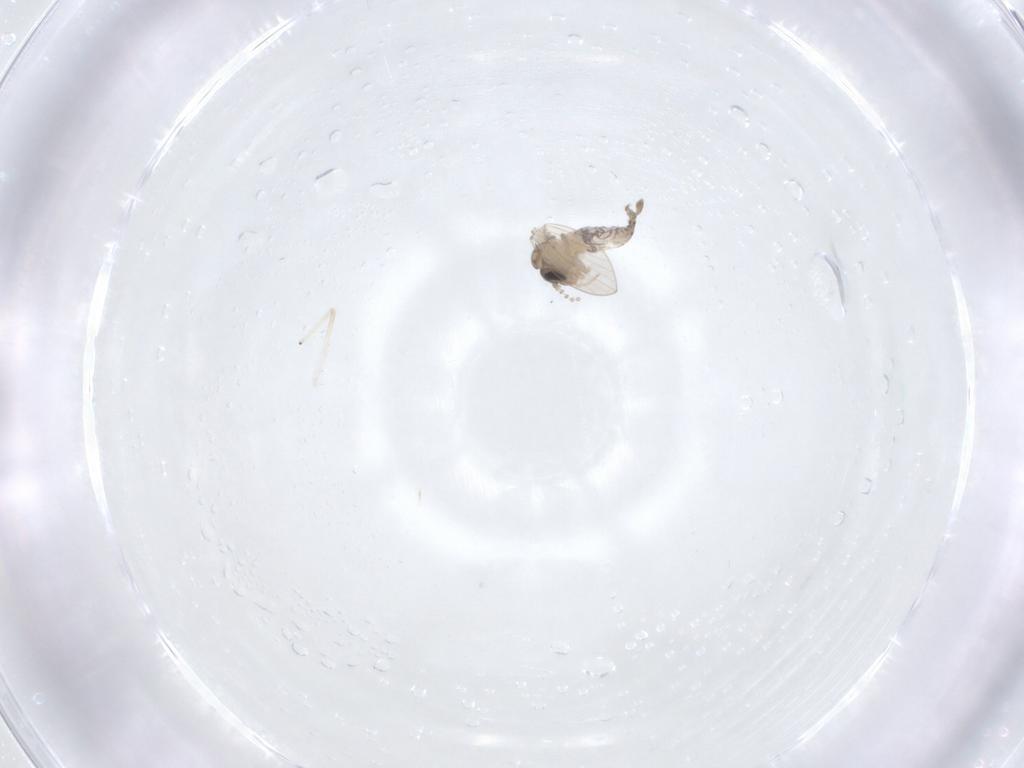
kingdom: Animalia
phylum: Arthropoda
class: Insecta
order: Diptera
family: Psychodidae
